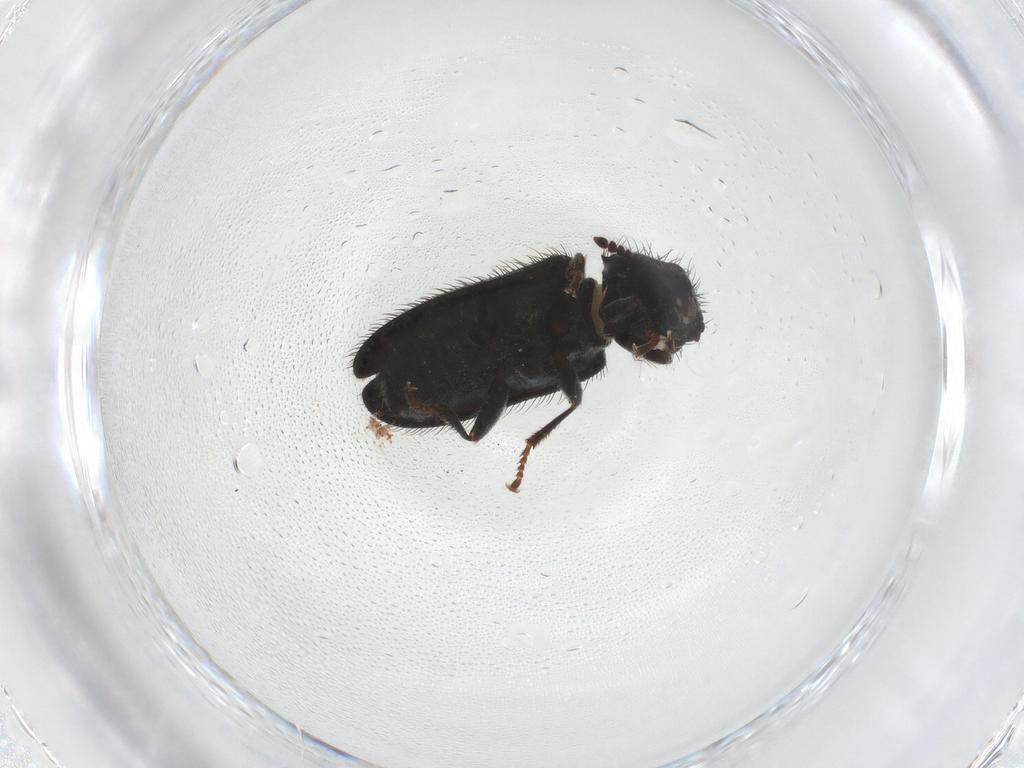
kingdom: Animalia
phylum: Arthropoda
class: Insecta
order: Coleoptera
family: Melyridae
